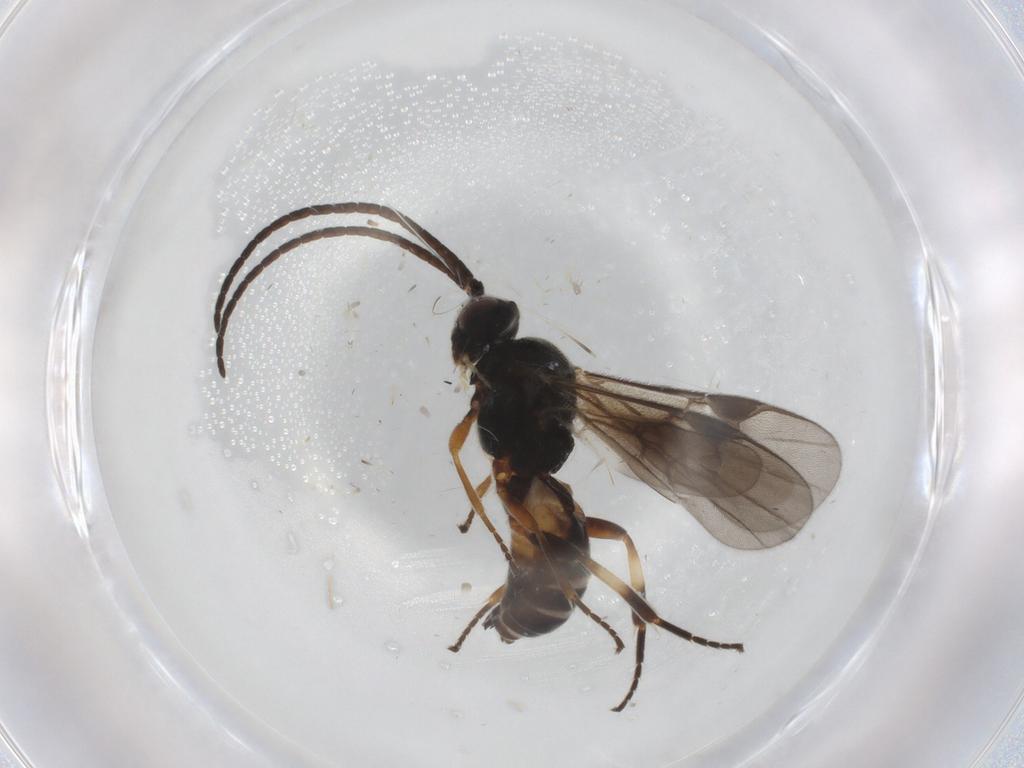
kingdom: Animalia
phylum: Arthropoda
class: Insecta
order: Hymenoptera
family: Braconidae
